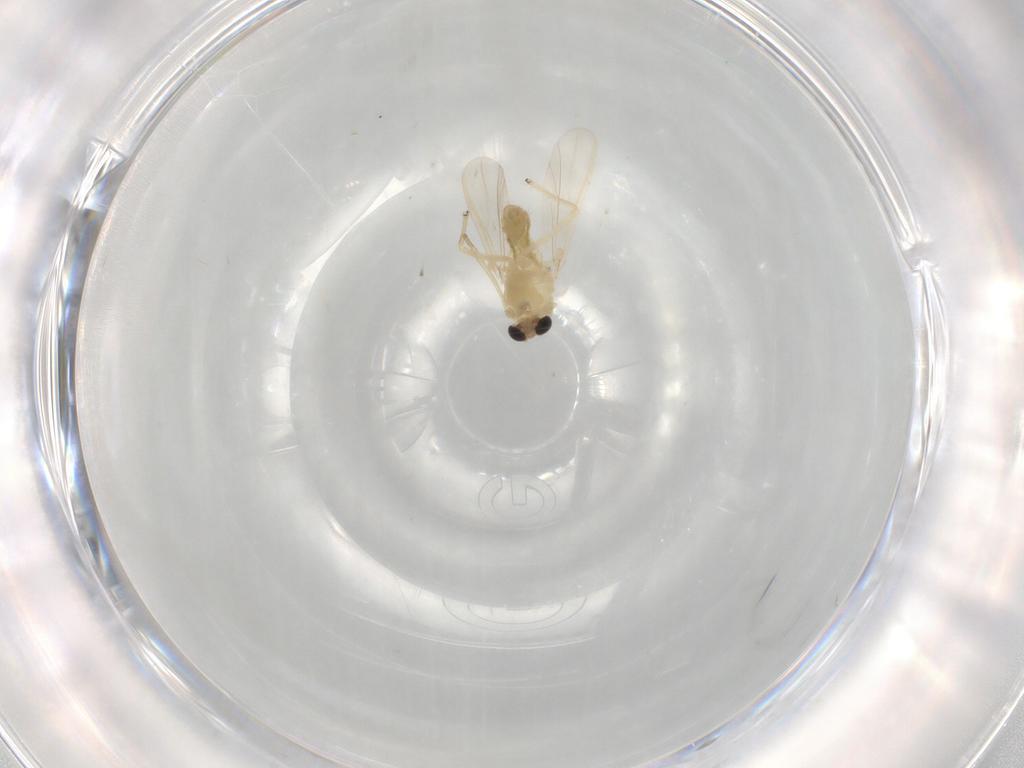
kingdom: Animalia
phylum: Arthropoda
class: Insecta
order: Diptera
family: Chironomidae
